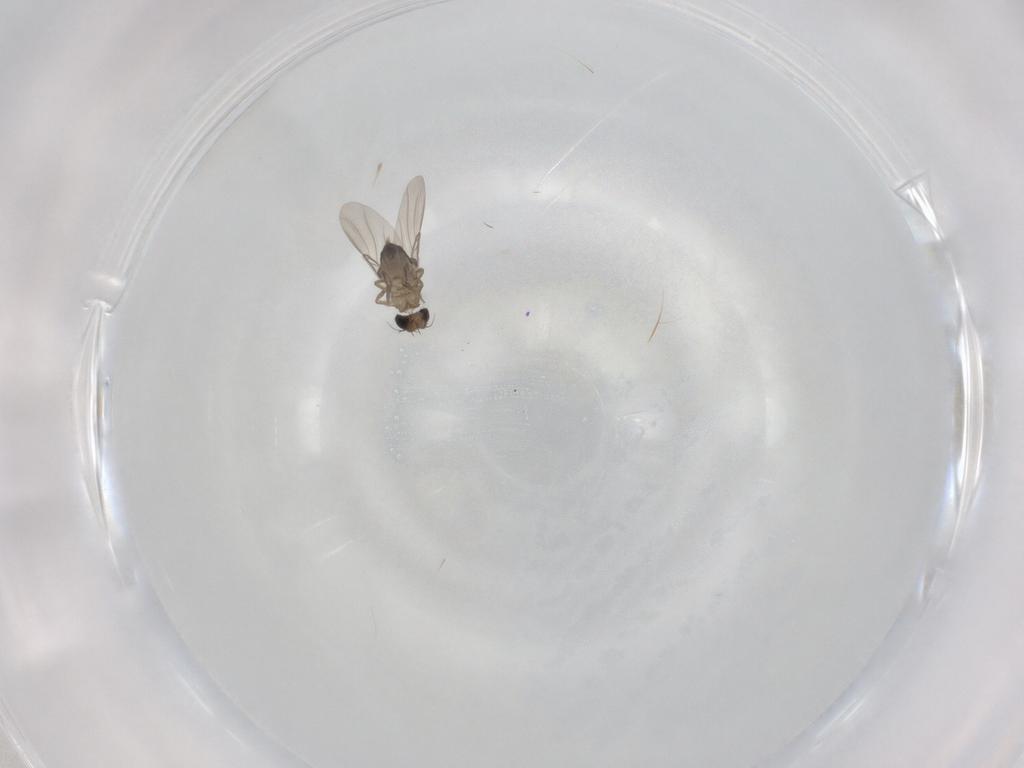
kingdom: Animalia
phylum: Arthropoda
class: Insecta
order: Diptera
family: Phoridae
